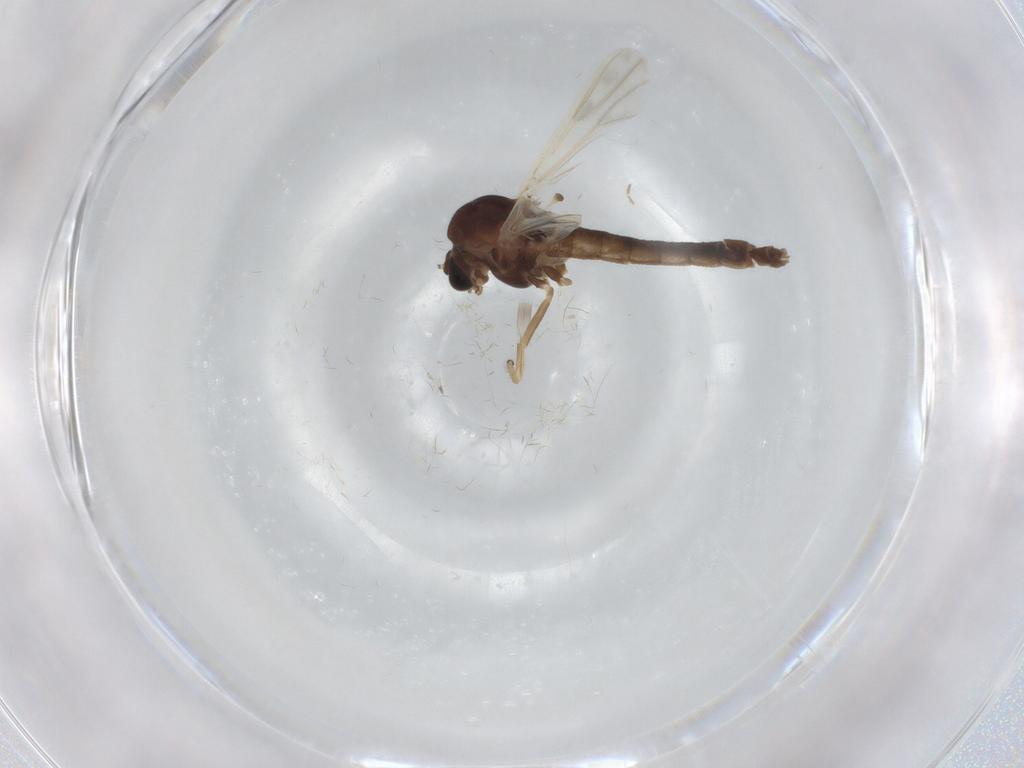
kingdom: Animalia
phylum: Arthropoda
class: Insecta
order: Diptera
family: Chironomidae
